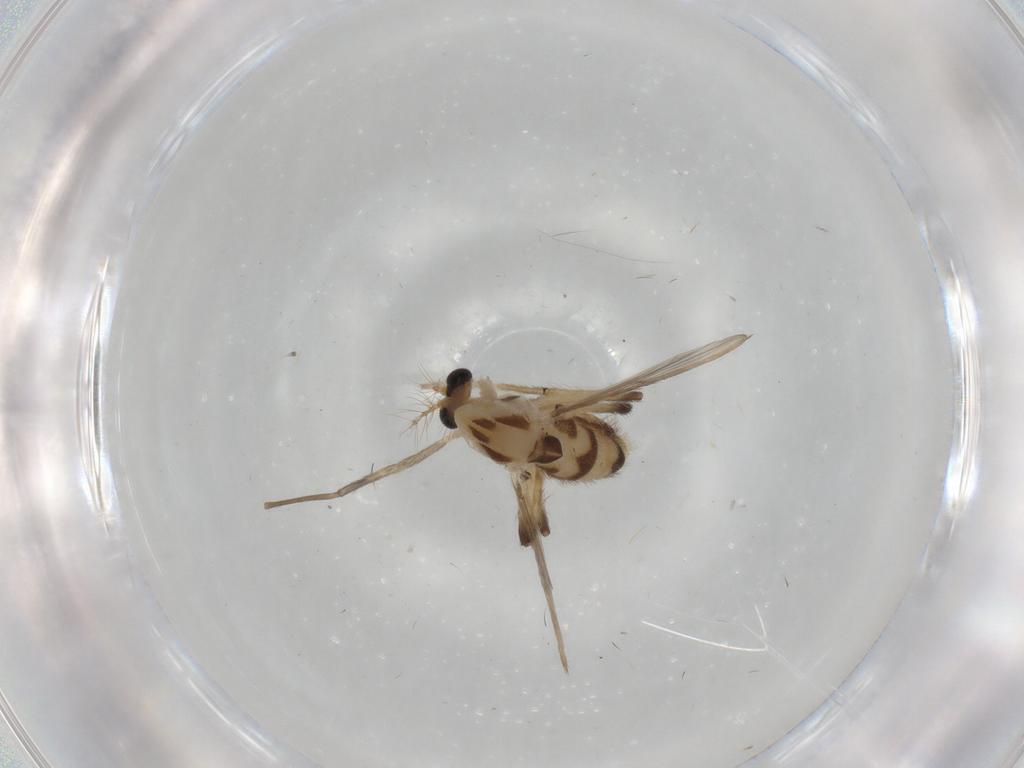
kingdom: Animalia
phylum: Arthropoda
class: Insecta
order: Diptera
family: Chironomidae
